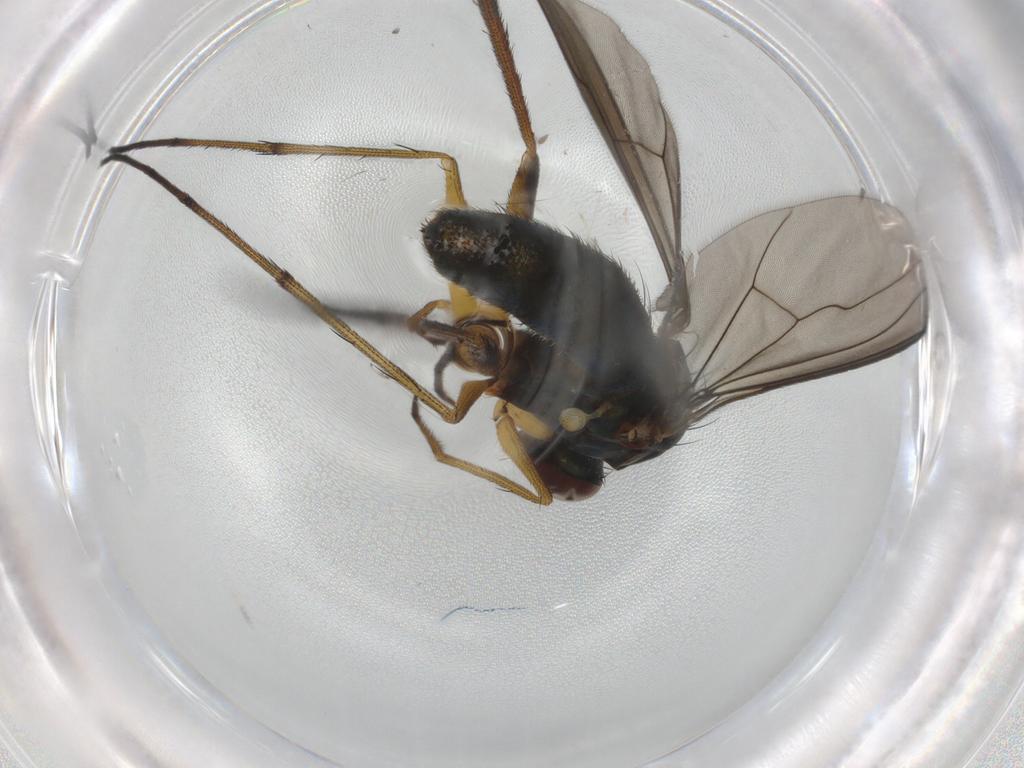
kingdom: Animalia
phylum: Arthropoda
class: Insecta
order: Diptera
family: Dolichopodidae
